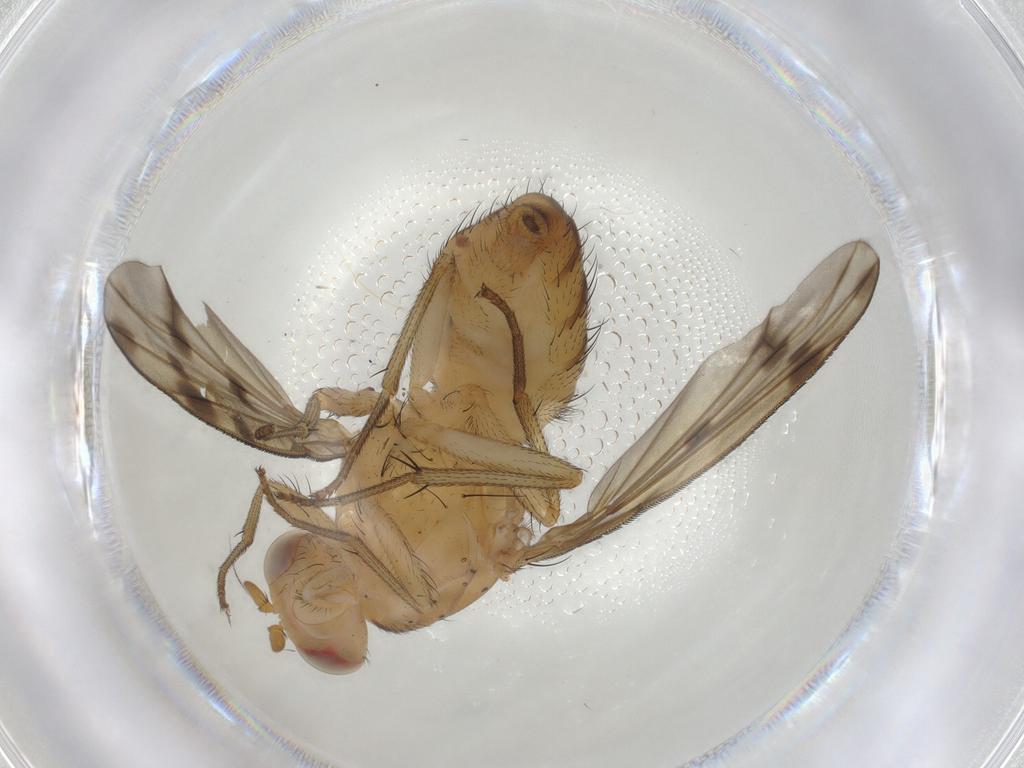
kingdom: Animalia
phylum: Arthropoda
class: Insecta
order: Diptera
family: Lauxaniidae
